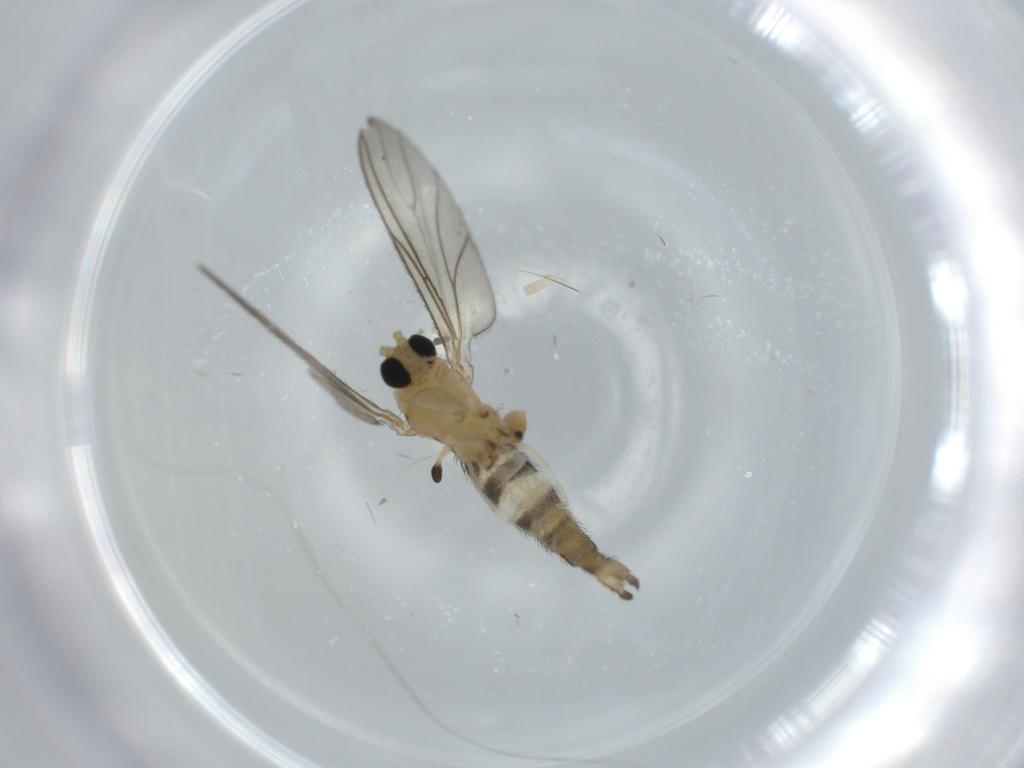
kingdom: Animalia
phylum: Arthropoda
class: Insecta
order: Diptera
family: Sciaridae
